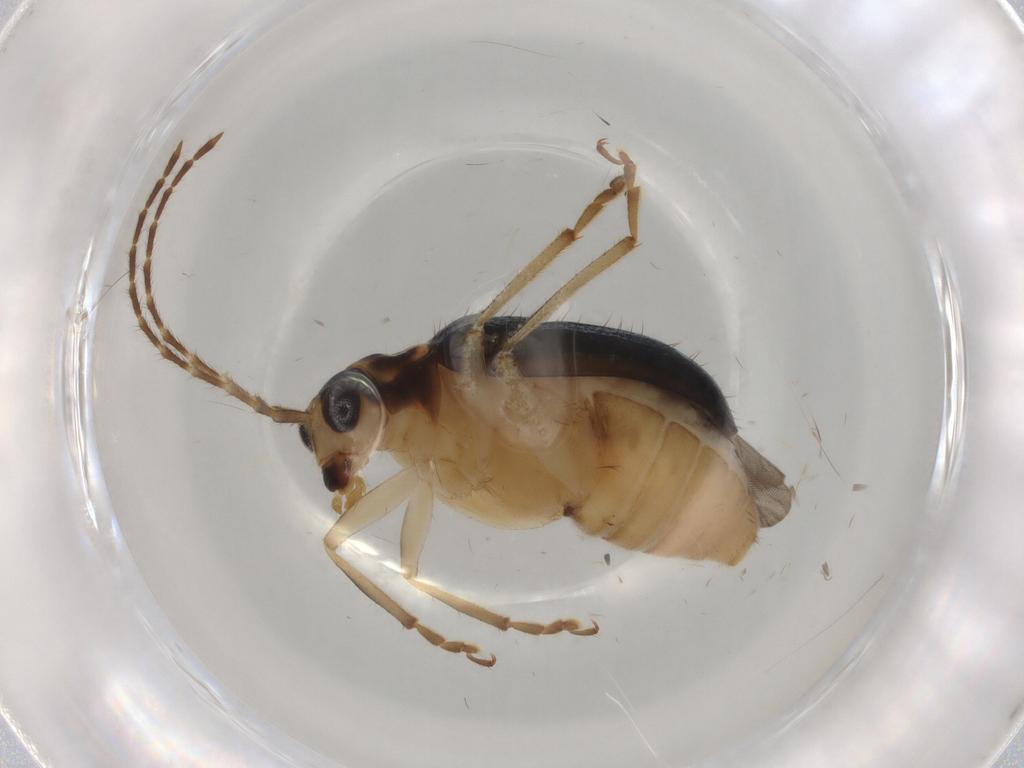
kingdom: Animalia
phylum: Arthropoda
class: Insecta
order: Coleoptera
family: Chrysomelidae
